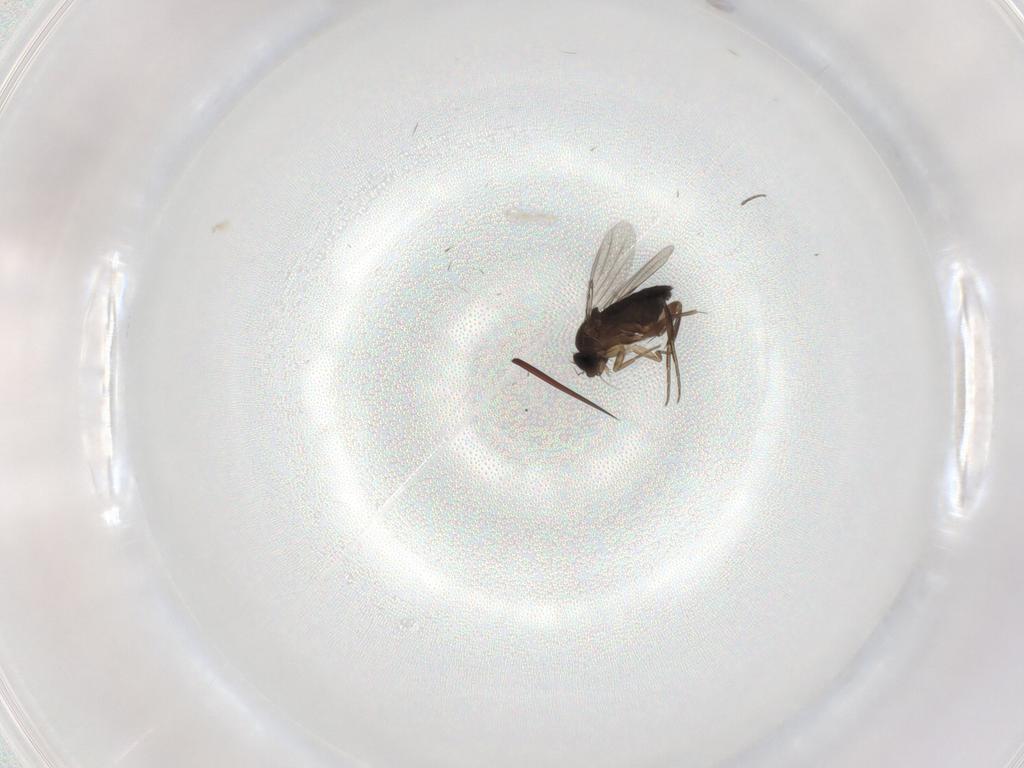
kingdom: Animalia
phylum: Arthropoda
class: Insecta
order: Diptera
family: Phoridae
